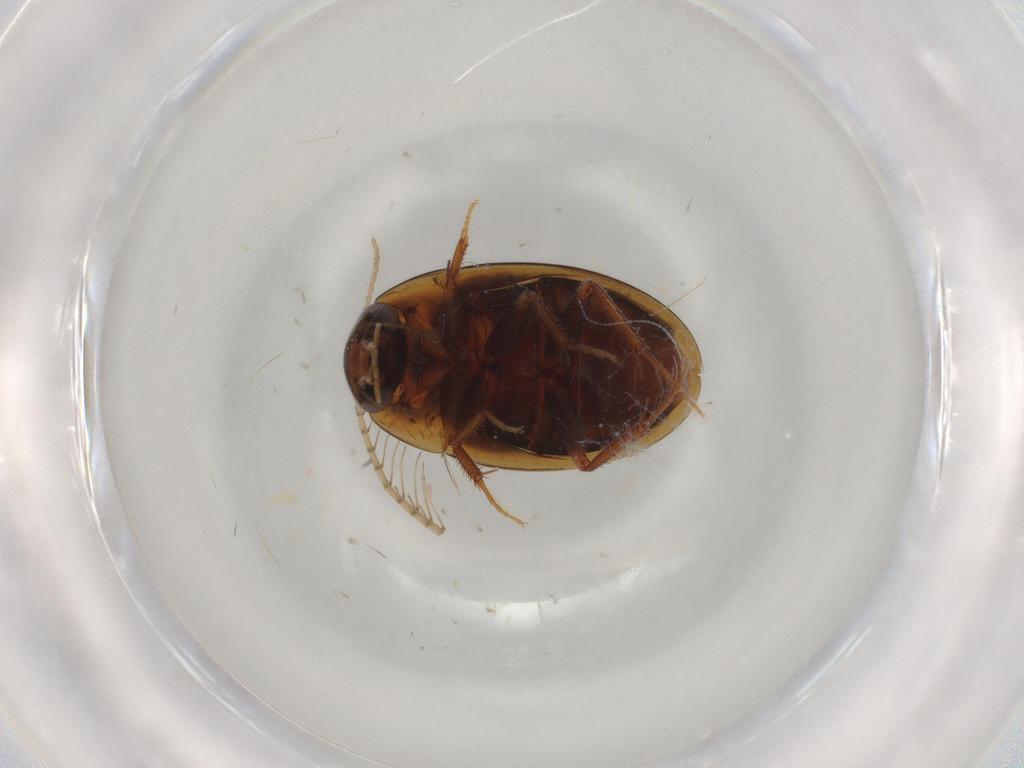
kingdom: Animalia
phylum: Arthropoda
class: Insecta
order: Coleoptera
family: Hydrophilidae
